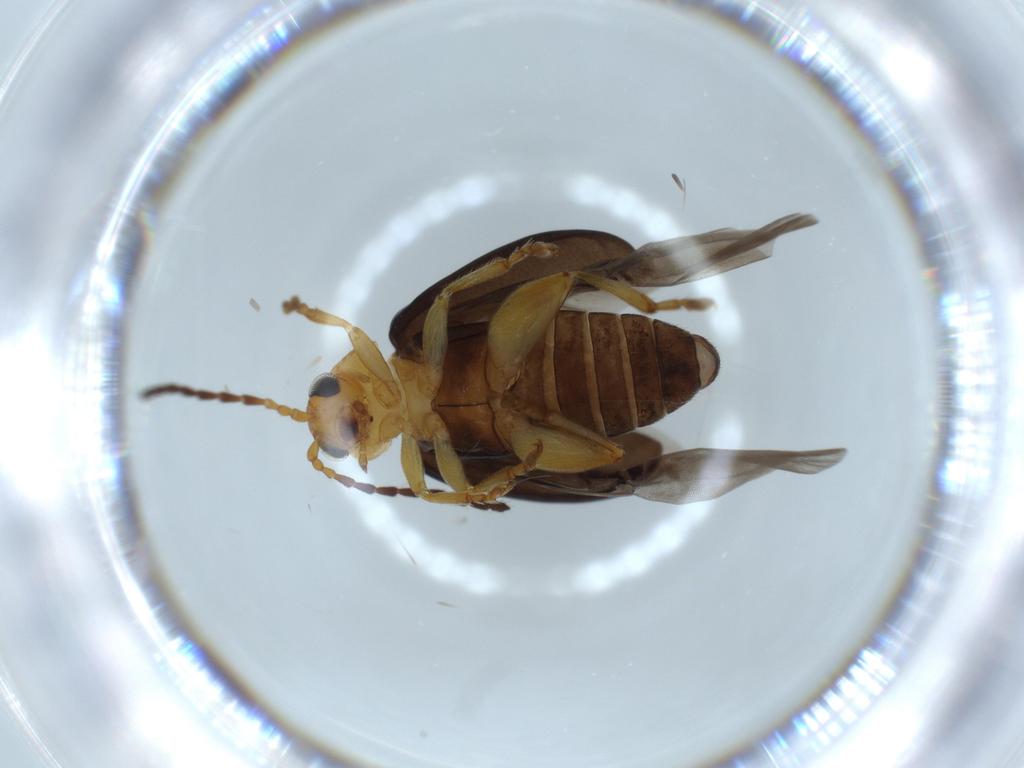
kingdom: Animalia
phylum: Arthropoda
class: Insecta
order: Coleoptera
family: Chrysomelidae
